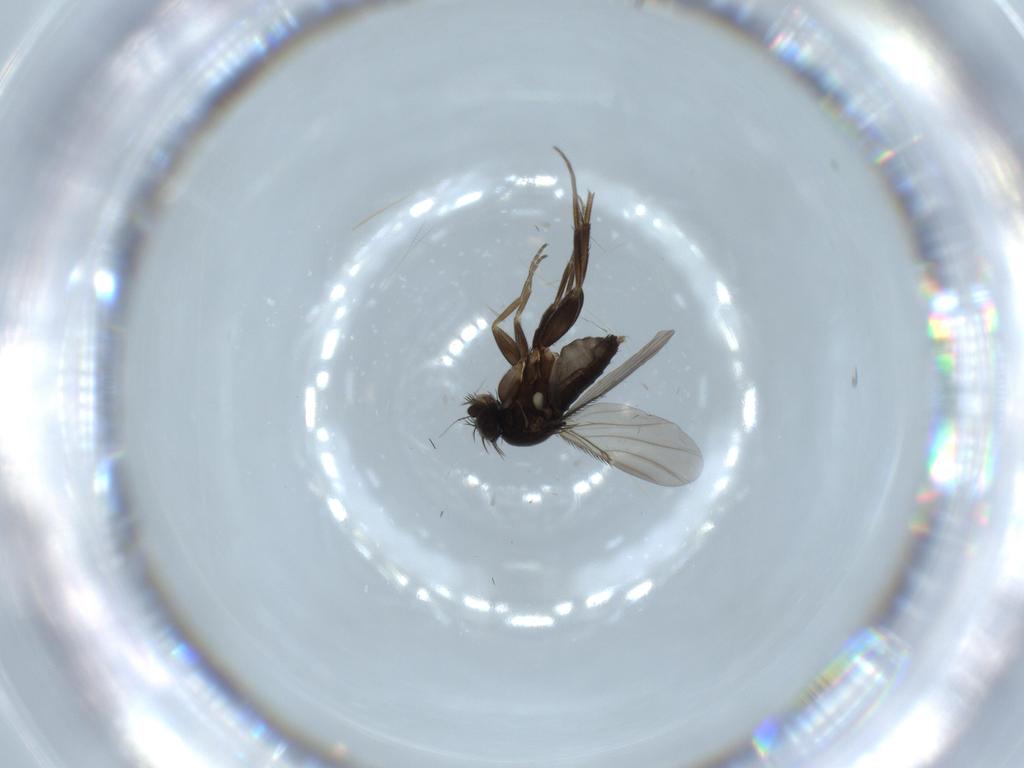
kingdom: Animalia
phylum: Arthropoda
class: Insecta
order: Diptera
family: Phoridae
